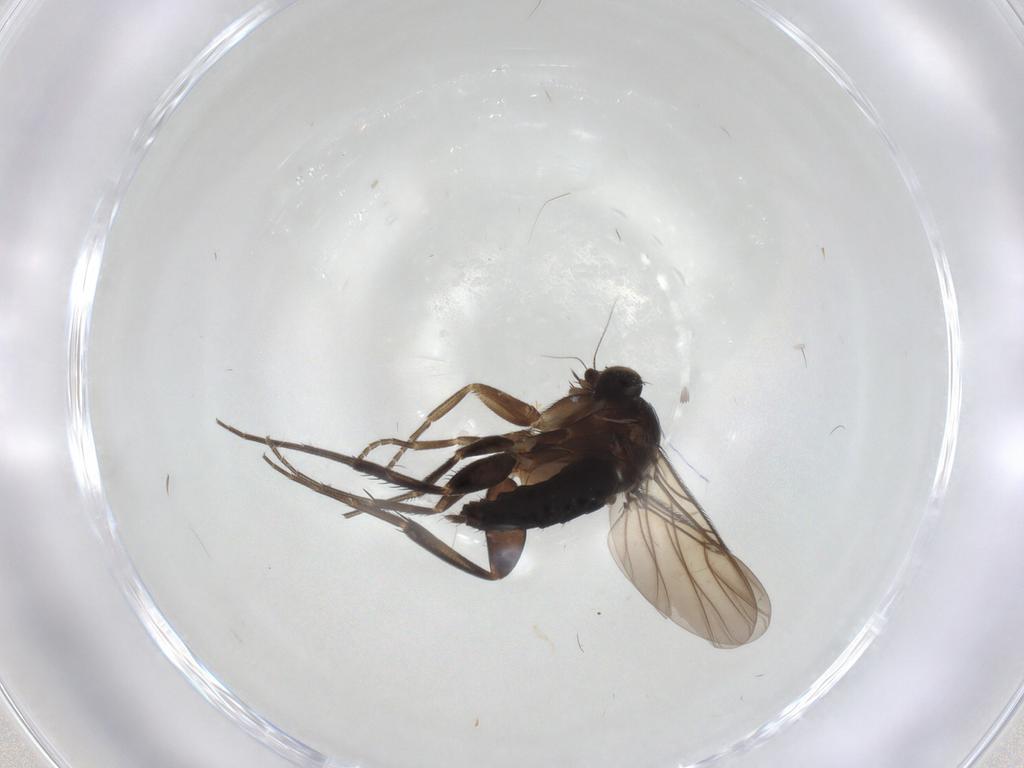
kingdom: Animalia
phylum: Arthropoda
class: Insecta
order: Diptera
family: Phoridae
